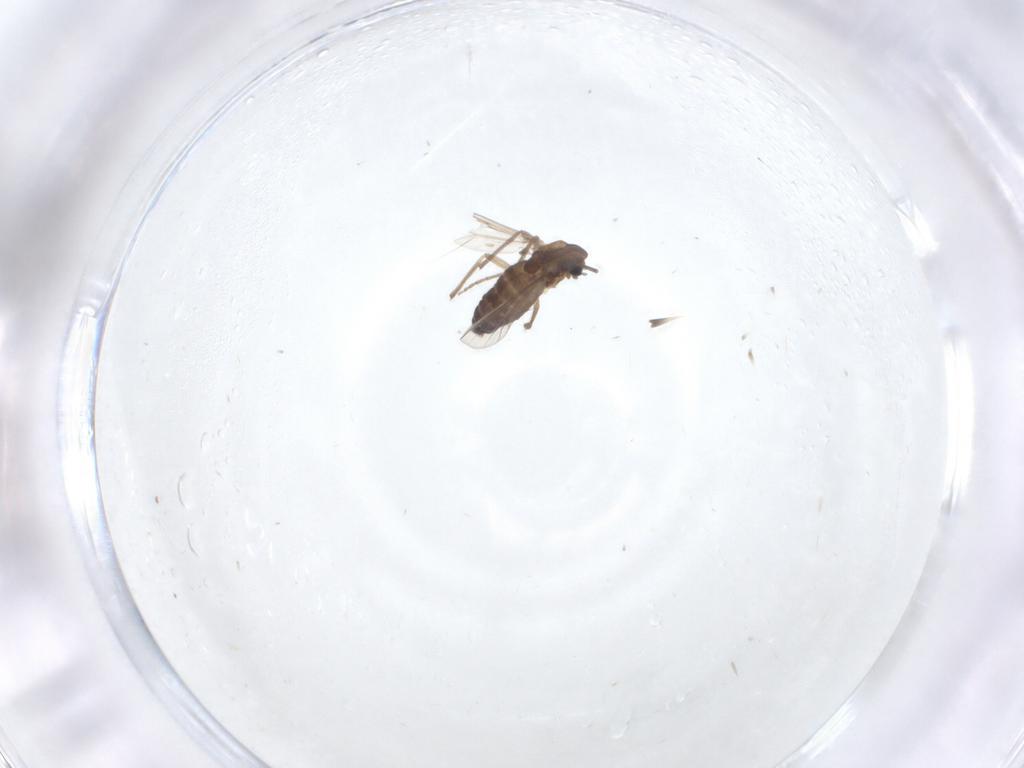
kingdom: Animalia
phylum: Arthropoda
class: Insecta
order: Diptera
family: Chironomidae
